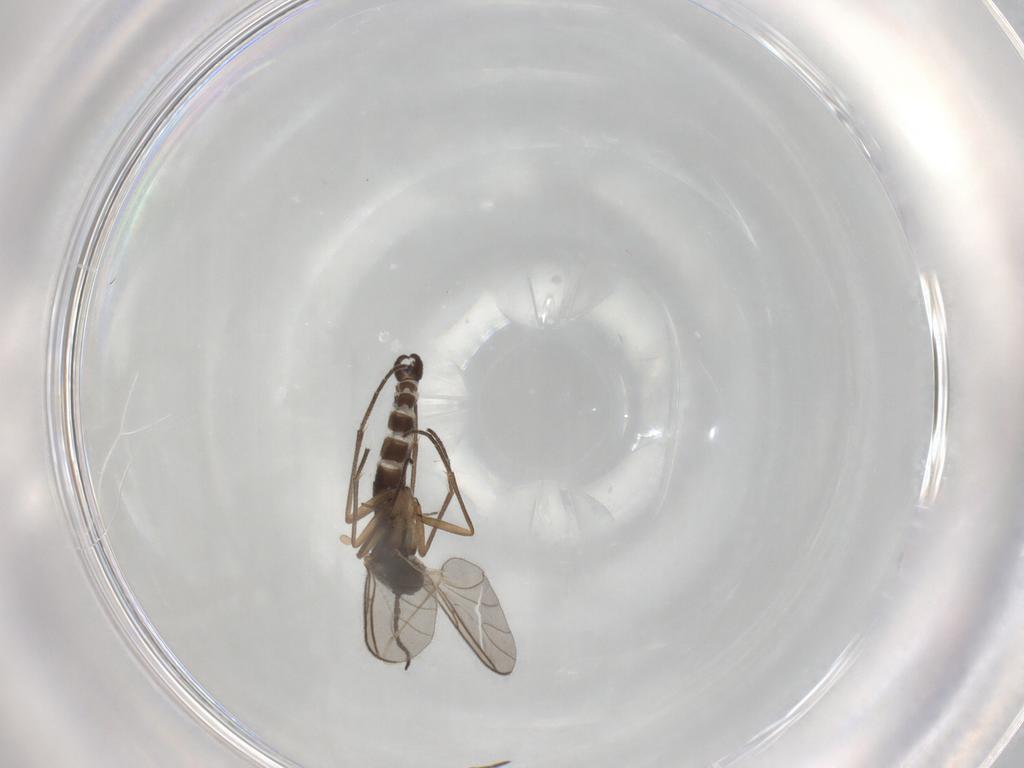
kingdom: Animalia
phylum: Arthropoda
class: Insecta
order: Diptera
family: Sciaridae
